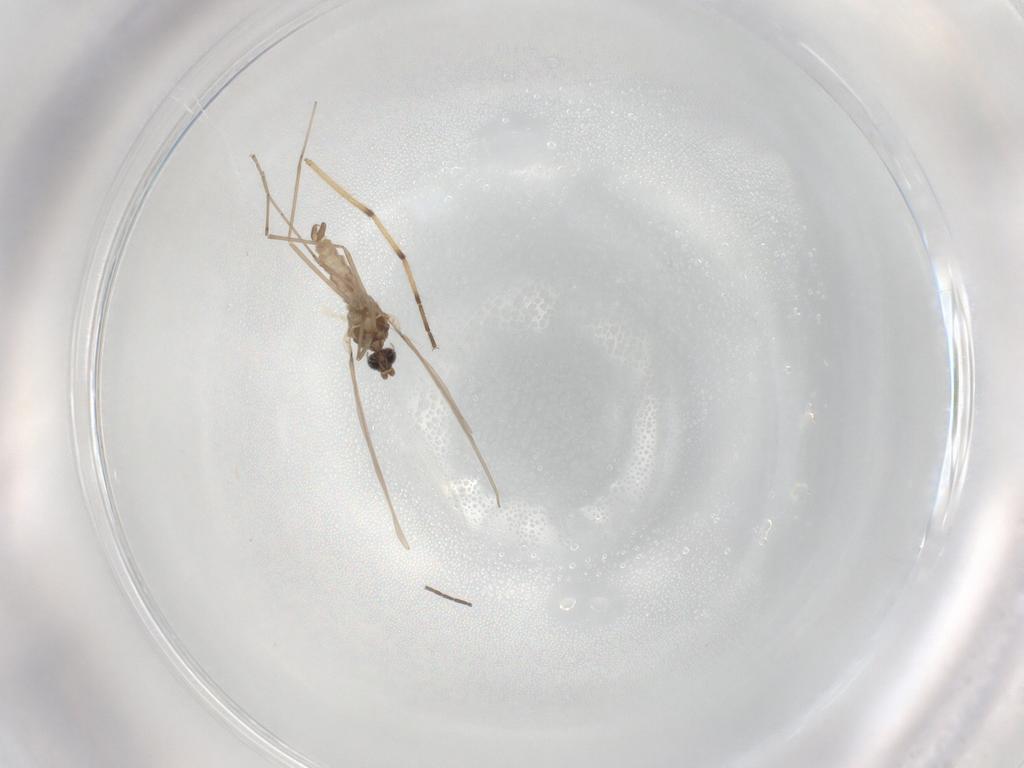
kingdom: Animalia
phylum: Arthropoda
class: Insecta
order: Diptera
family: Cecidomyiidae
